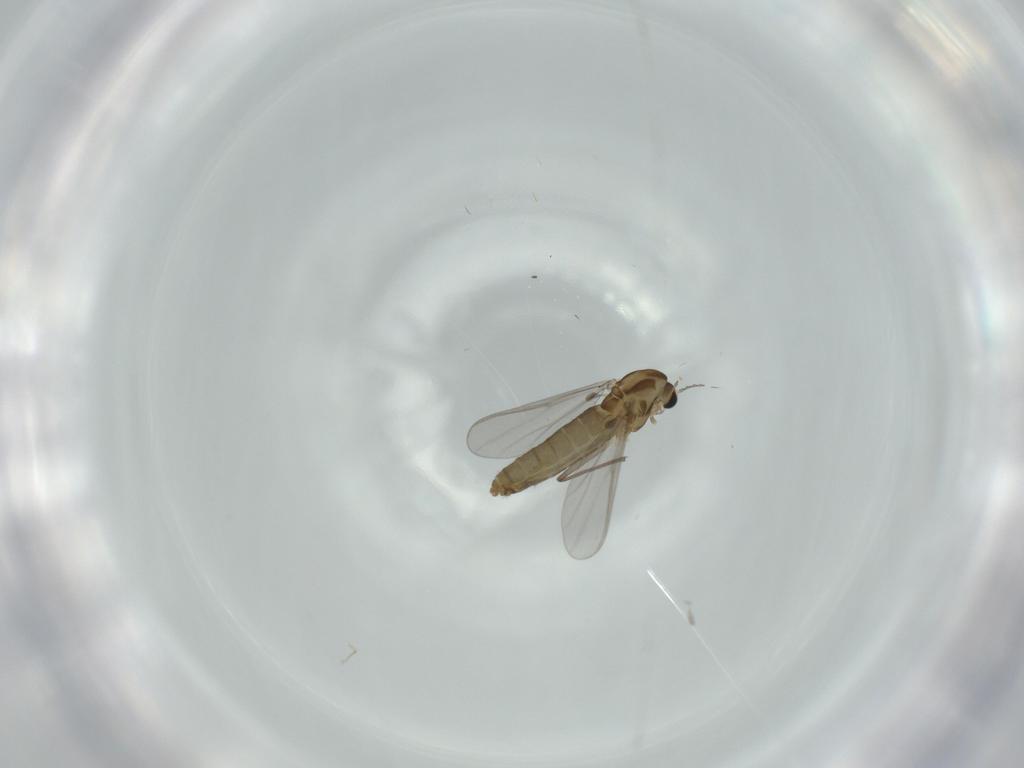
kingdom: Animalia
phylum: Arthropoda
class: Insecta
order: Diptera
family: Chironomidae
